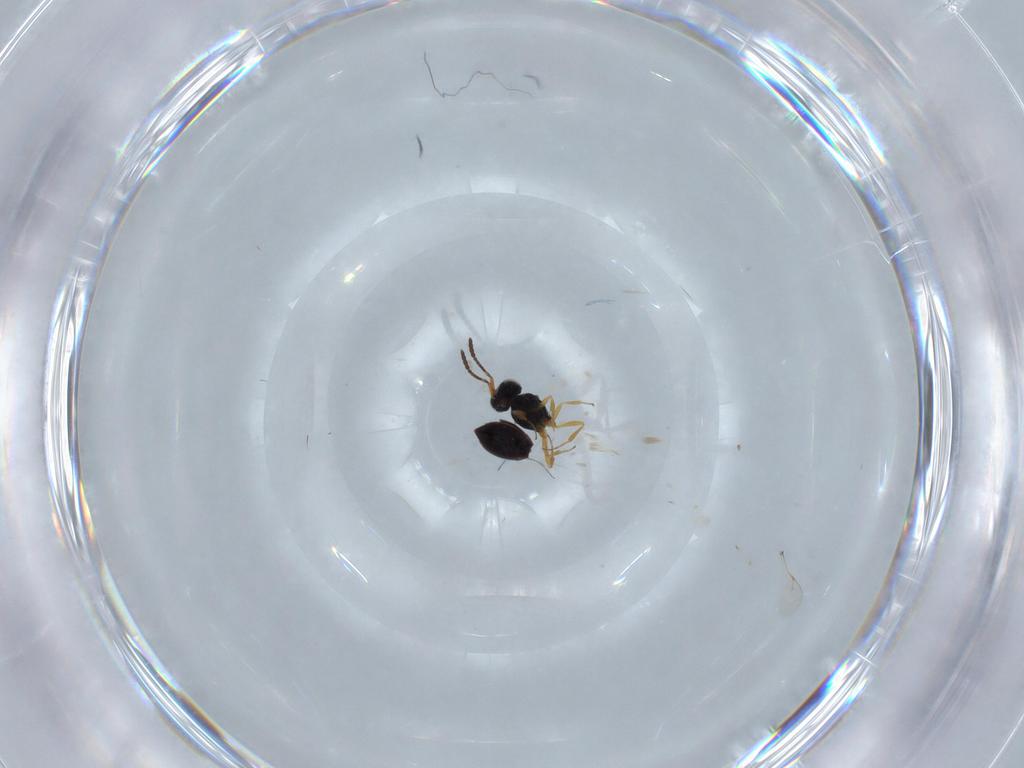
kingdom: Animalia
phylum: Arthropoda
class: Insecta
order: Hymenoptera
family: Scelionidae
